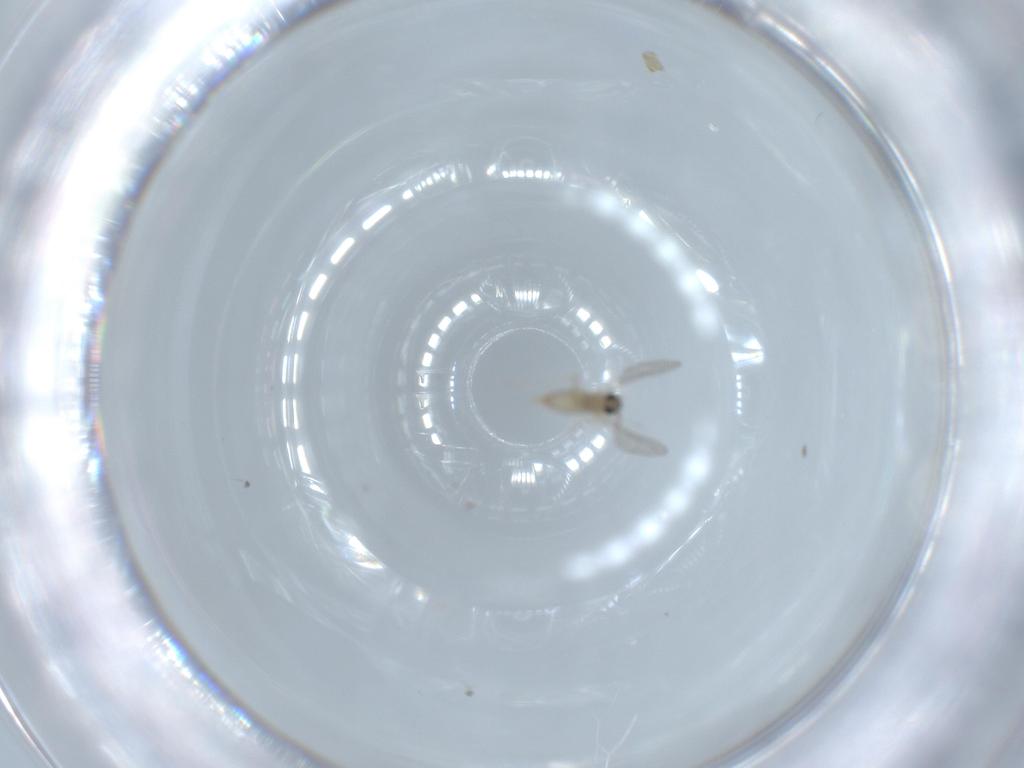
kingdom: Animalia
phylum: Arthropoda
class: Insecta
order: Diptera
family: Cecidomyiidae
